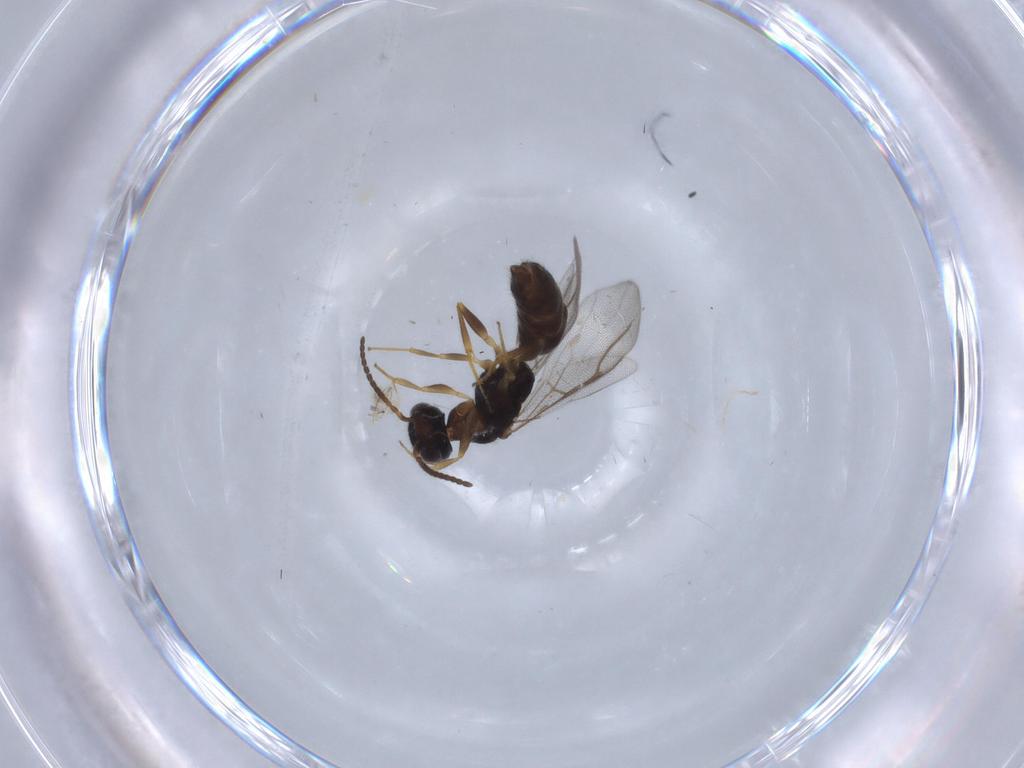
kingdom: Animalia
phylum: Arthropoda
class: Insecta
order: Hymenoptera
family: Bethylidae
